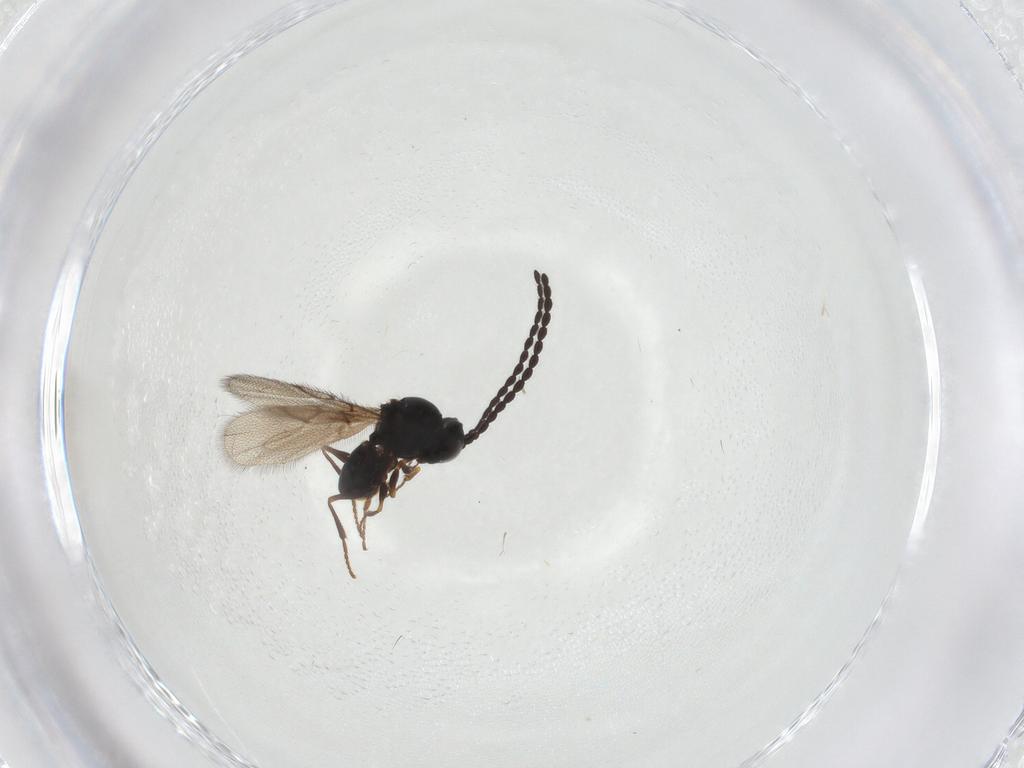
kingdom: Animalia
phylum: Arthropoda
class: Insecta
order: Hymenoptera
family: Figitidae
